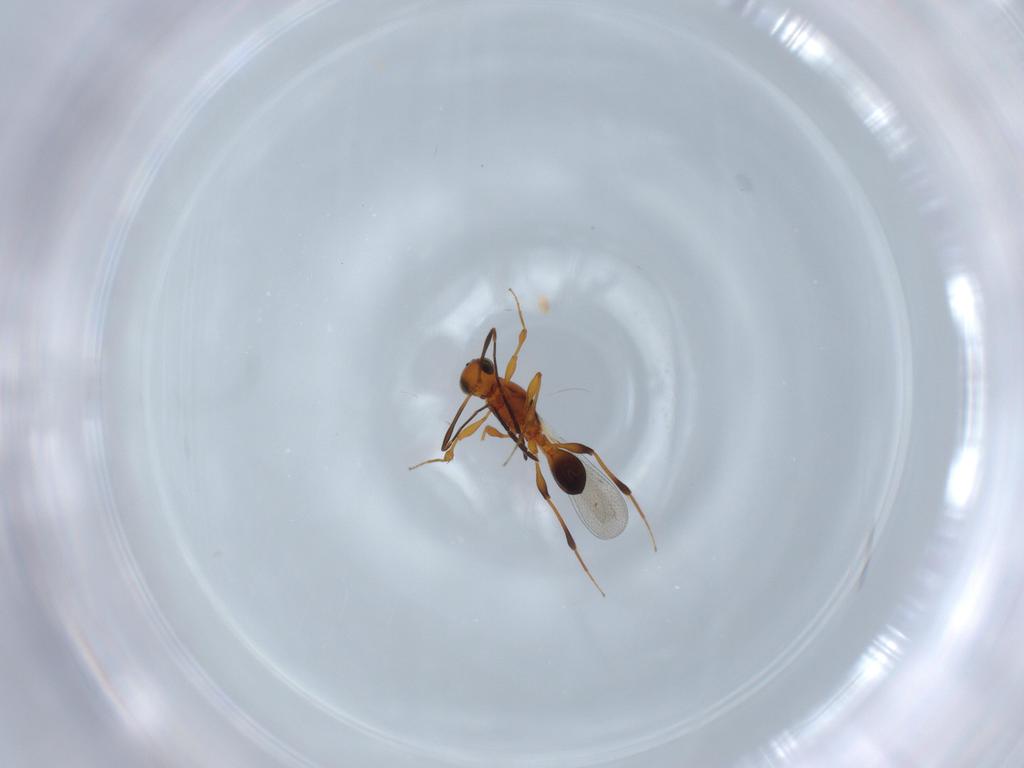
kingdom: Animalia
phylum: Arthropoda
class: Insecta
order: Hymenoptera
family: Platygastridae
